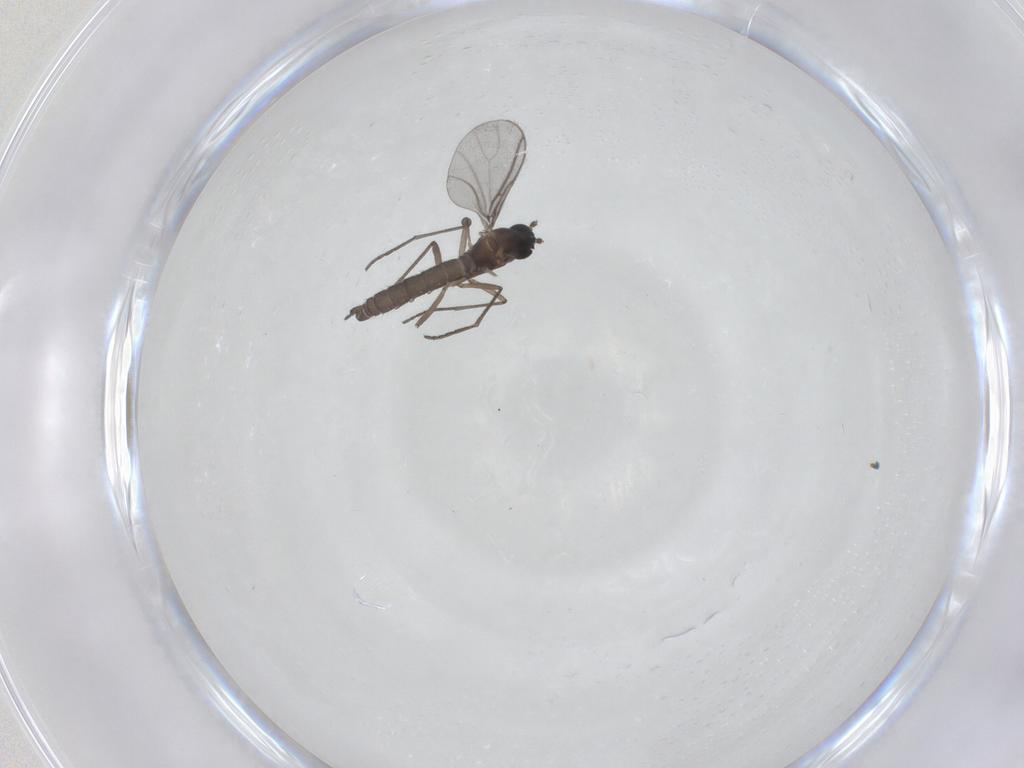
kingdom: Animalia
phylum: Arthropoda
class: Insecta
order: Diptera
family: Sciaridae
